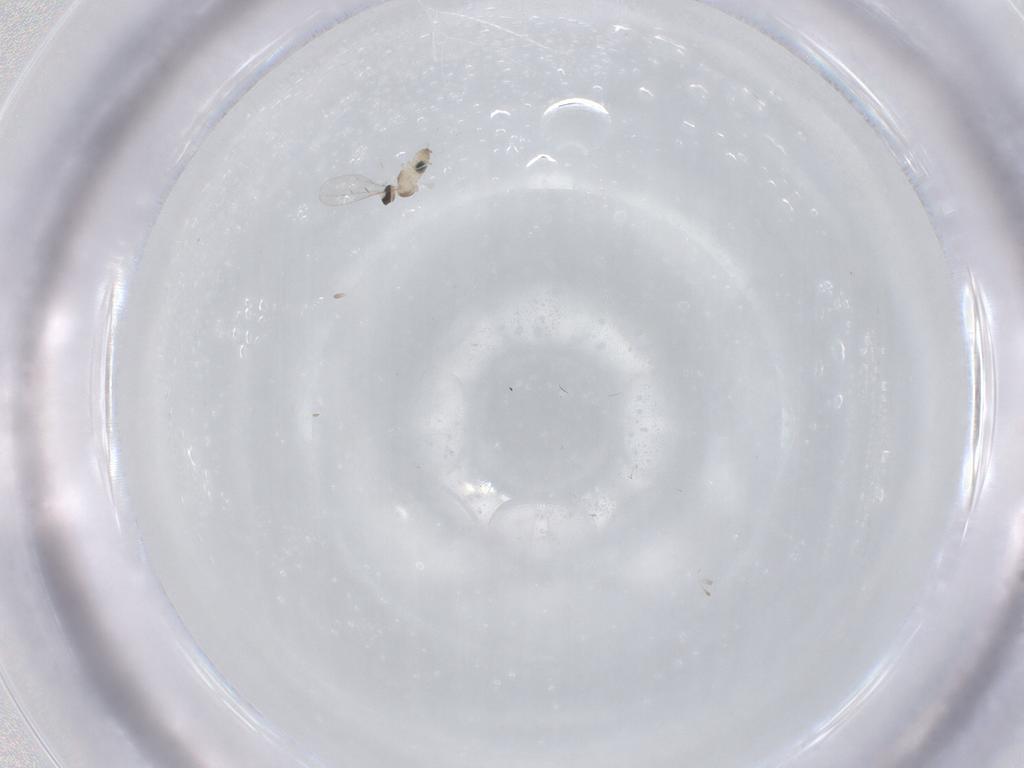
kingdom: Animalia
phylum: Arthropoda
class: Insecta
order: Diptera
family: Cecidomyiidae
